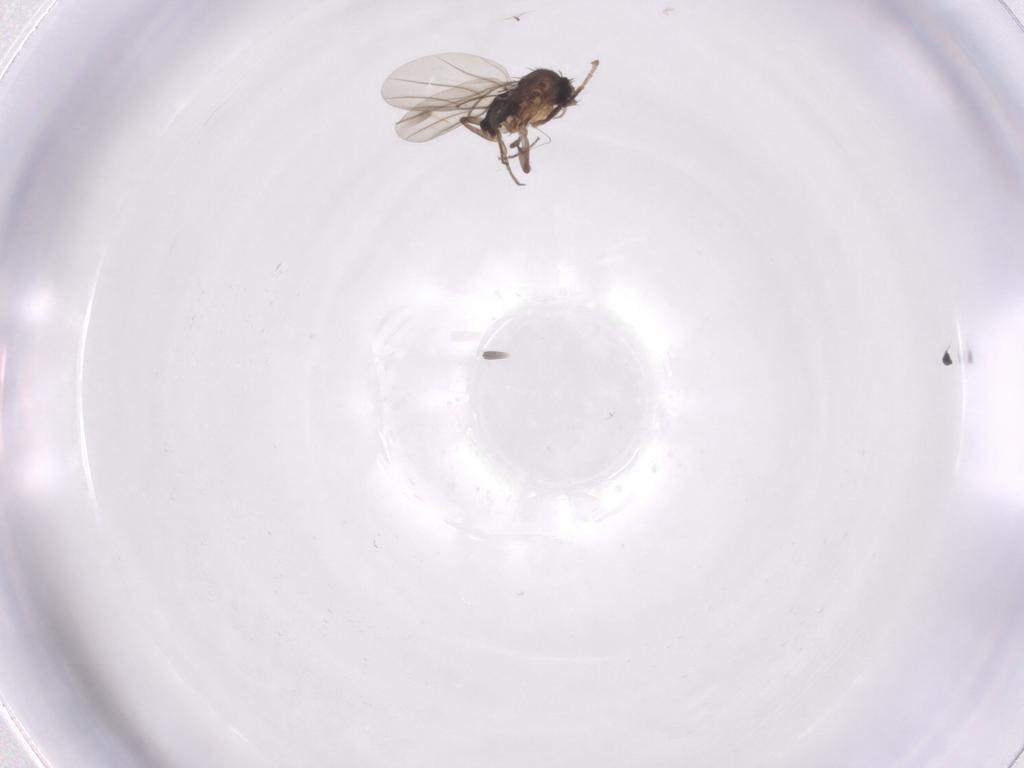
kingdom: Animalia
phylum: Arthropoda
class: Insecta
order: Diptera
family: Phoridae
